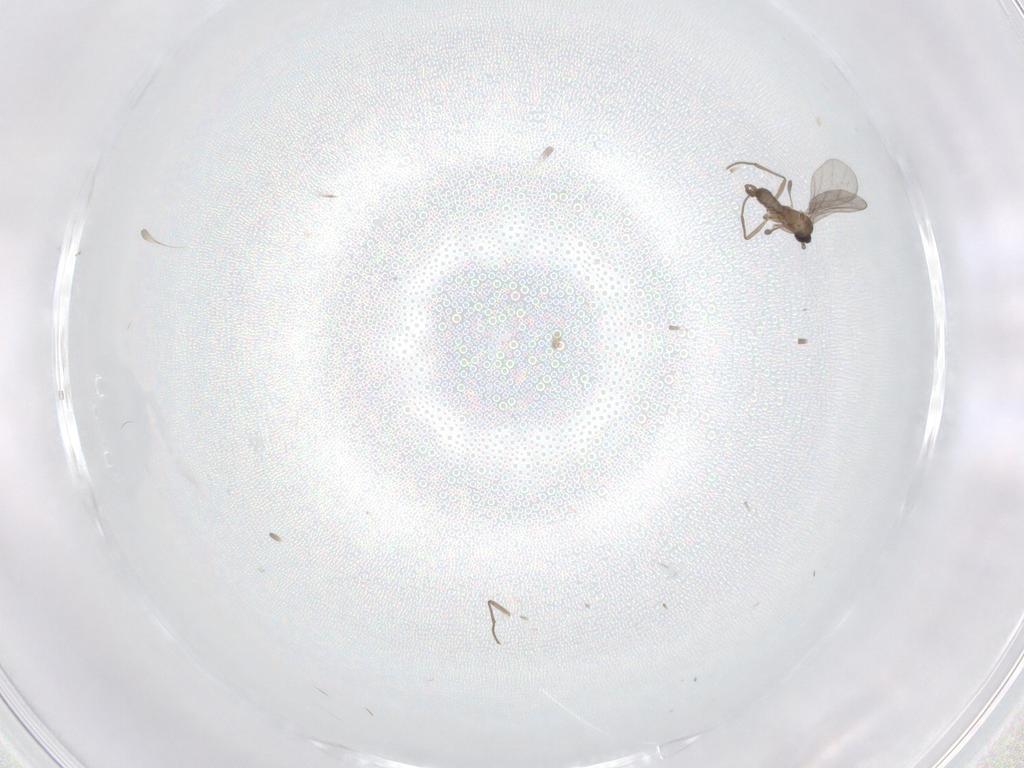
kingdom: Animalia
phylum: Arthropoda
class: Insecta
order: Diptera
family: Sciaridae
